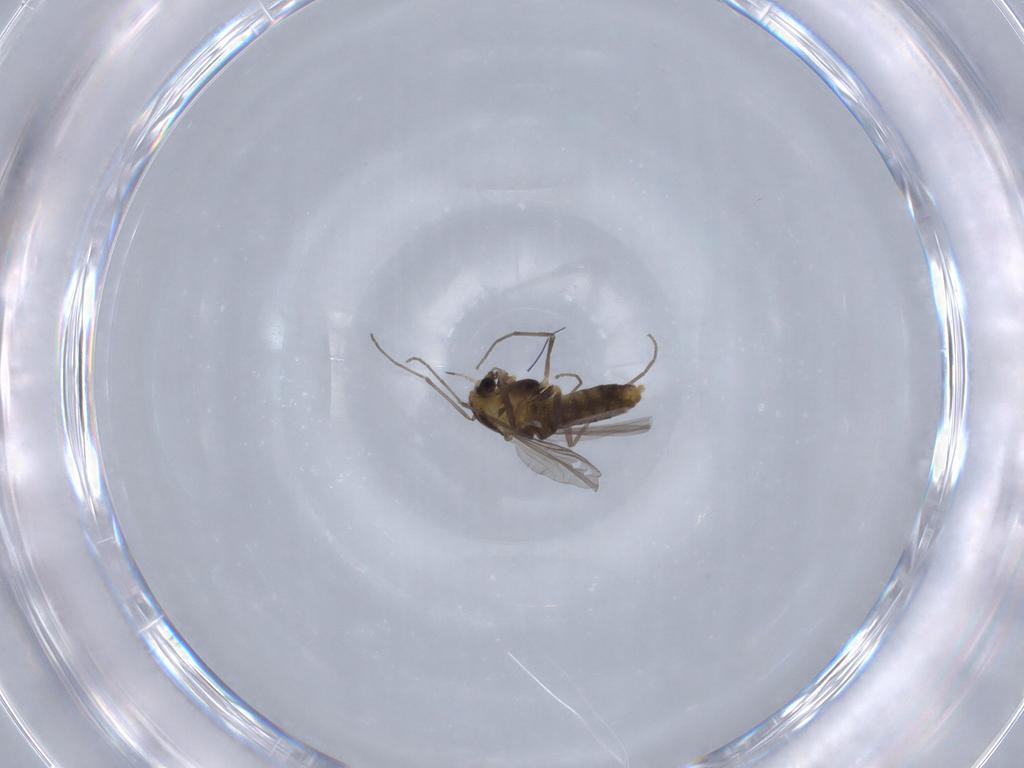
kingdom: Animalia
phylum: Arthropoda
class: Insecta
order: Diptera
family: Chironomidae
